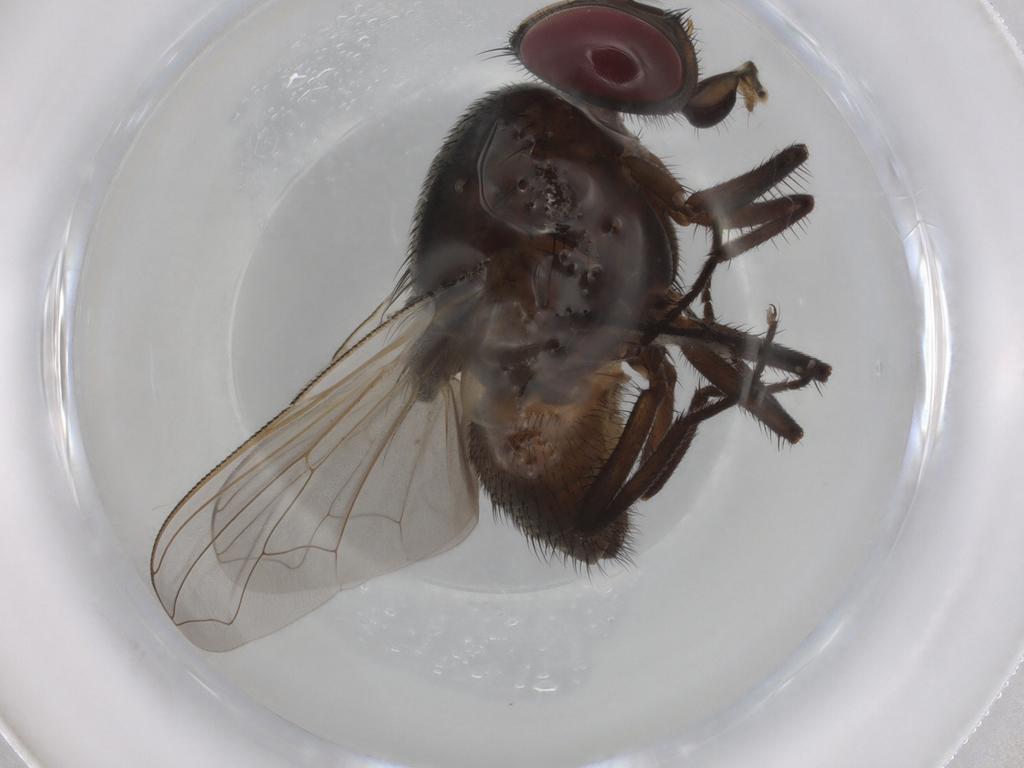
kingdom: Animalia
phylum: Arthropoda
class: Insecta
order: Diptera
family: Muscidae
